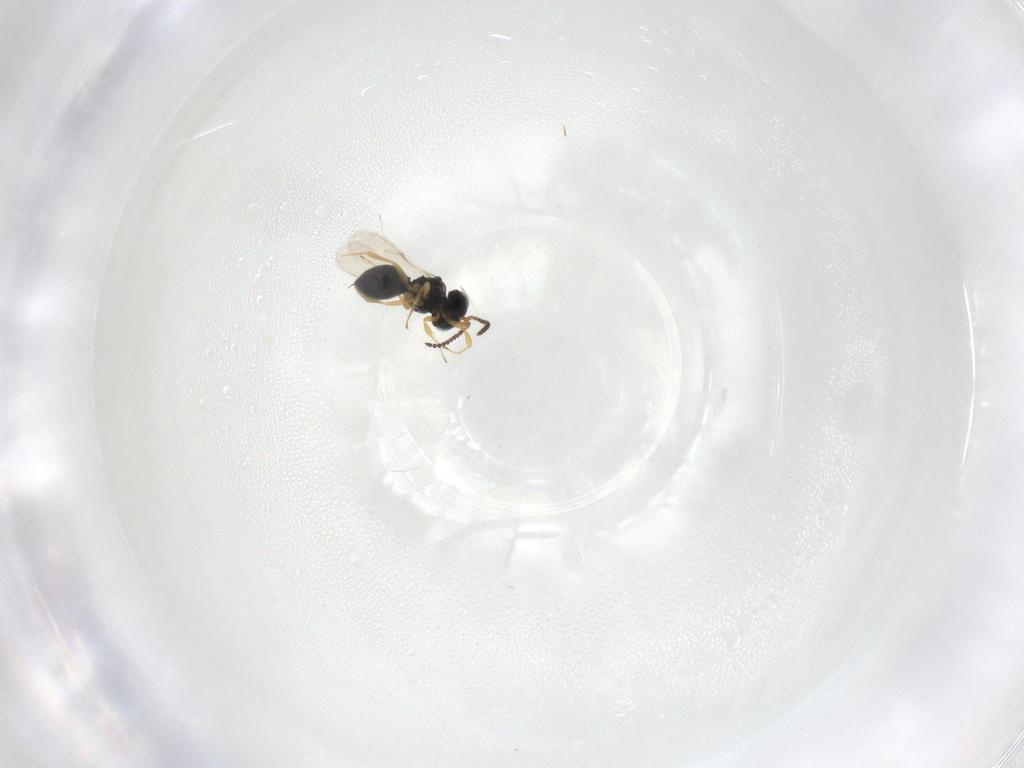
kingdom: Animalia
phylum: Arthropoda
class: Insecta
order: Hymenoptera
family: Scelionidae
